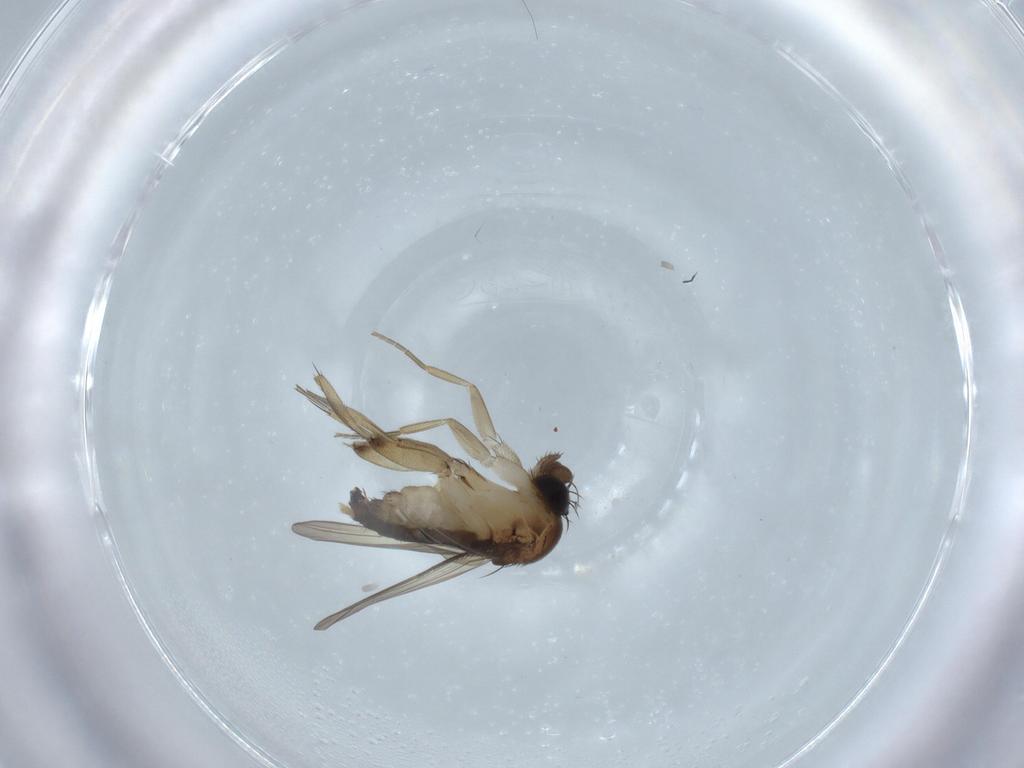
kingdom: Animalia
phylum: Arthropoda
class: Insecta
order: Diptera
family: Phoridae
